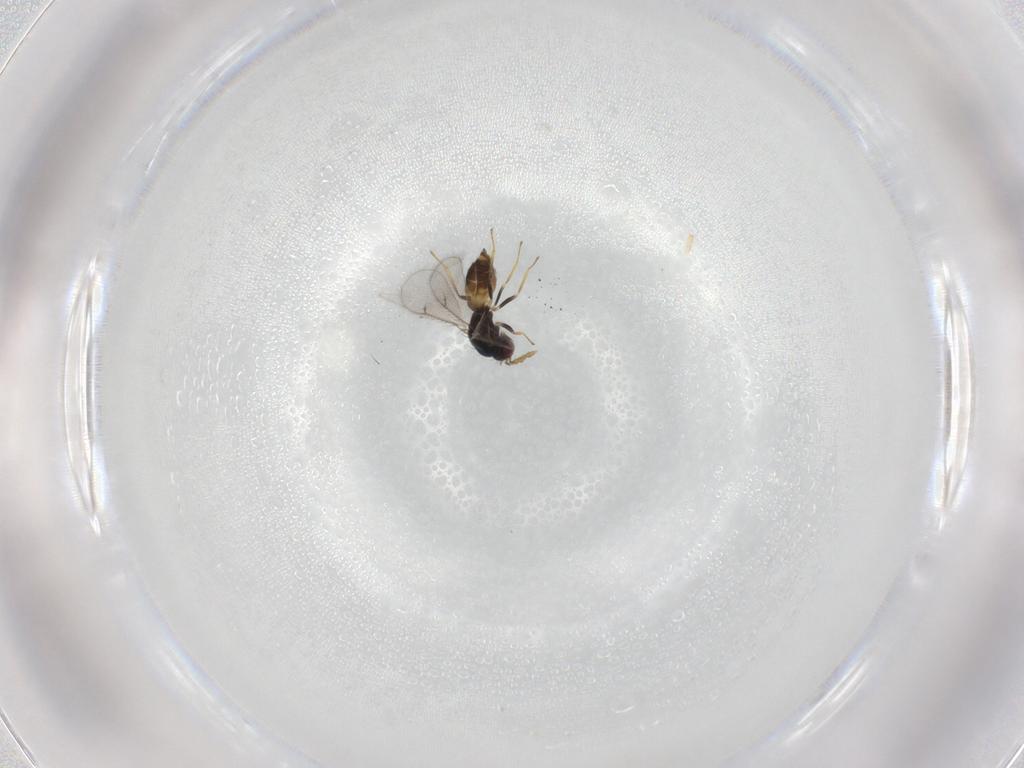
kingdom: Animalia
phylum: Arthropoda
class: Insecta
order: Hymenoptera
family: Eulophidae
